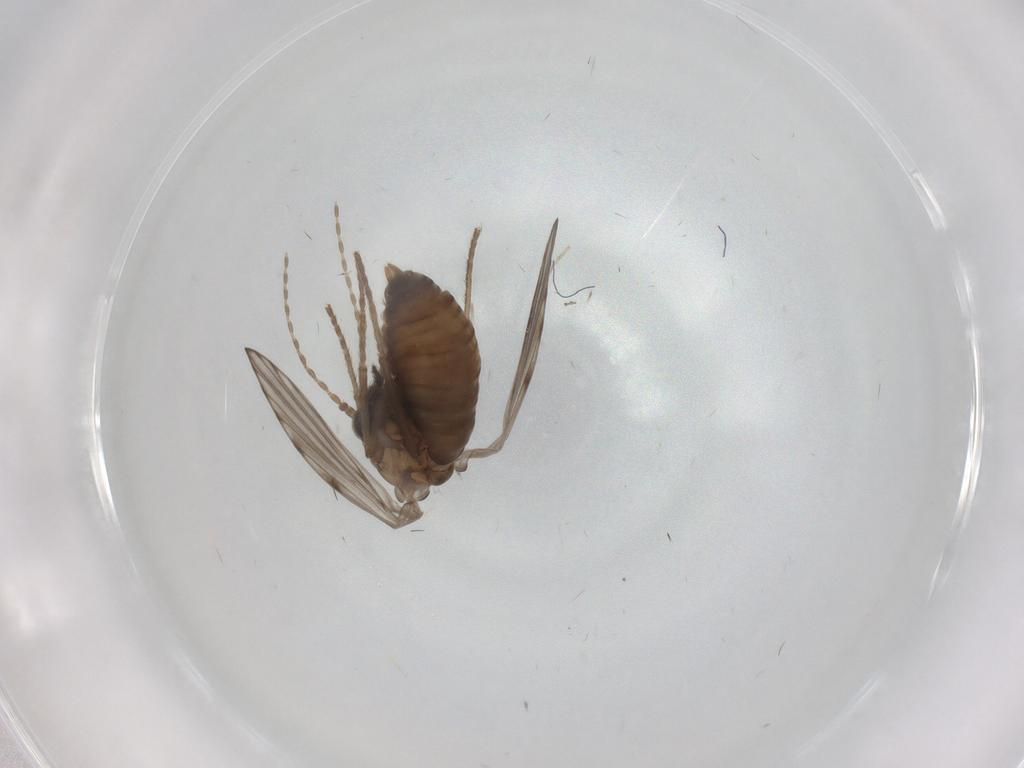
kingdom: Animalia
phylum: Arthropoda
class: Insecta
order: Diptera
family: Psychodidae
